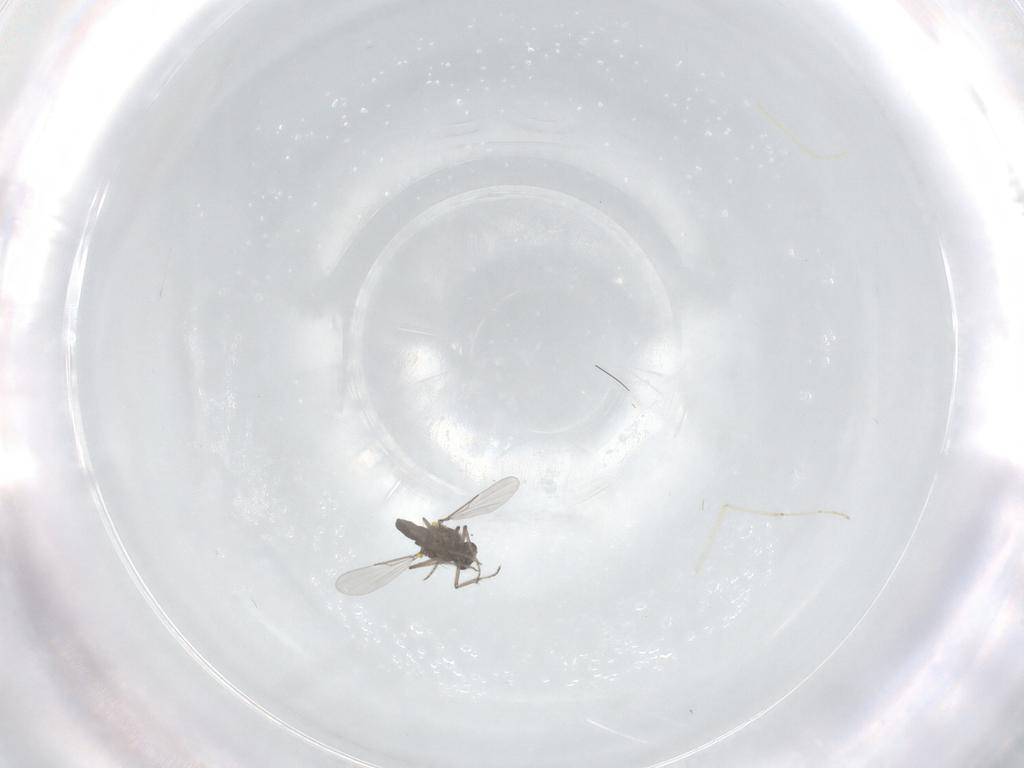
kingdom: Animalia
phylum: Arthropoda
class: Insecta
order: Diptera
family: Cecidomyiidae
